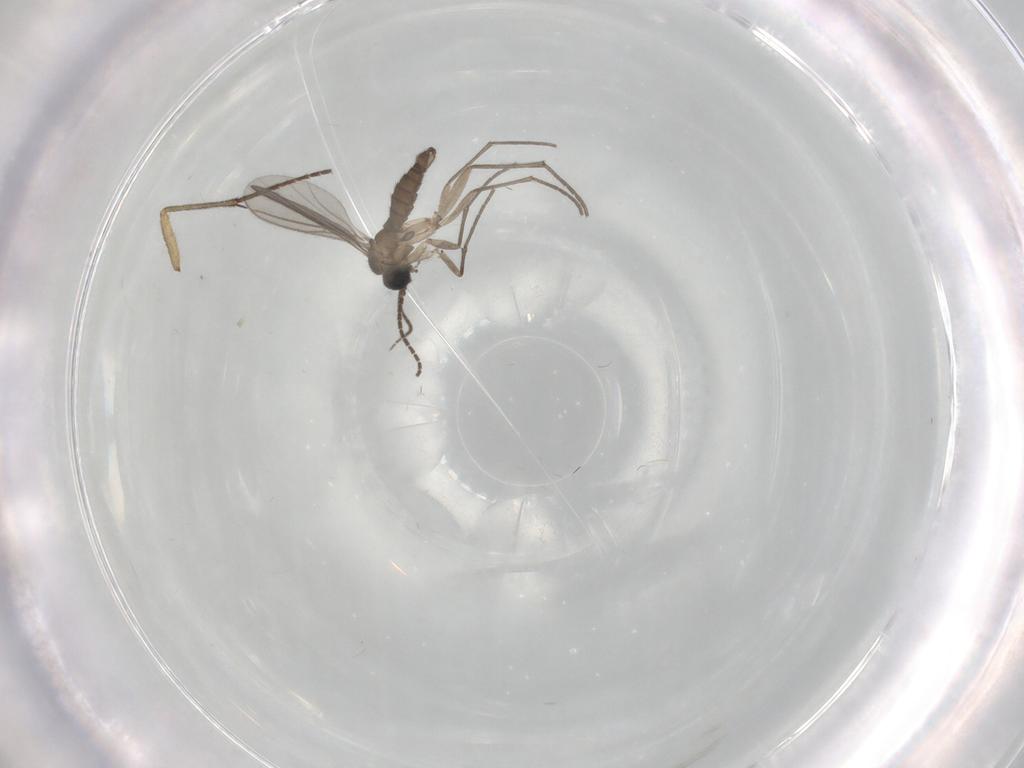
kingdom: Animalia
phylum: Arthropoda
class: Insecta
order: Diptera
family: Sciaridae
